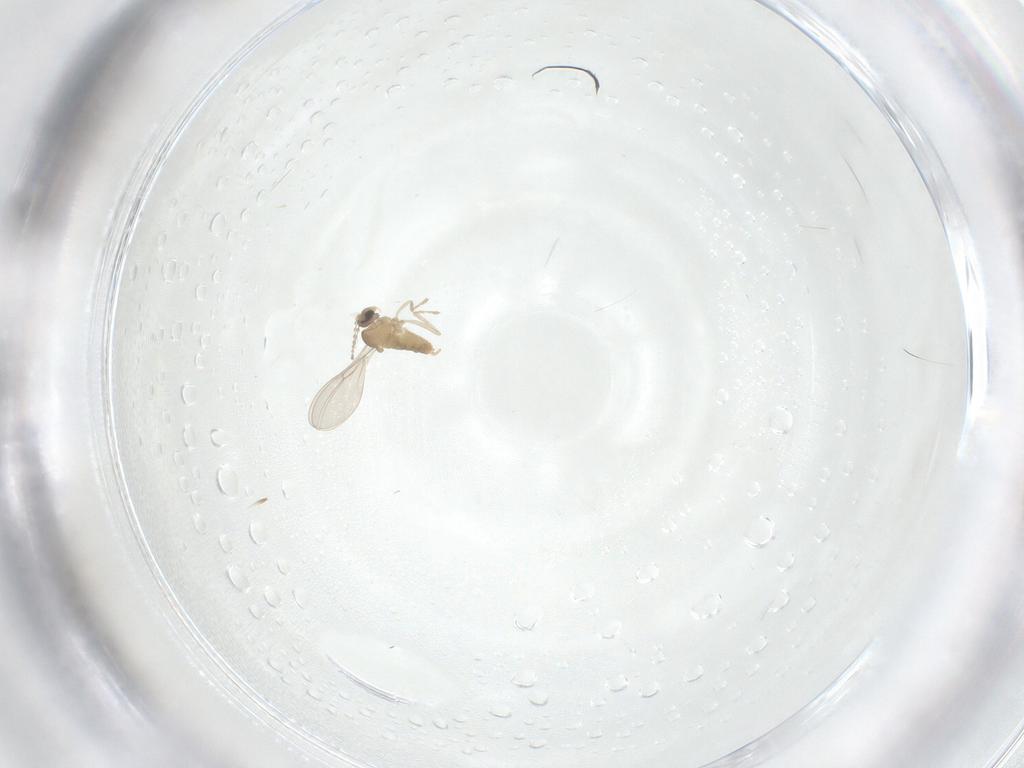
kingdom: Animalia
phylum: Arthropoda
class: Insecta
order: Diptera
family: Cecidomyiidae
